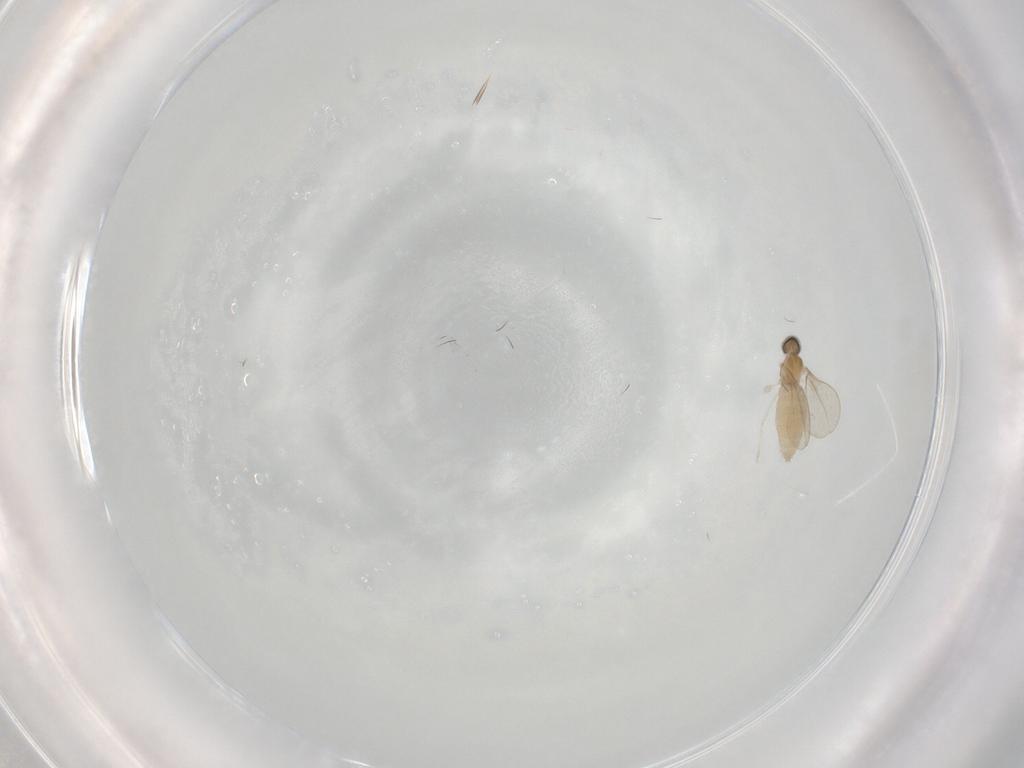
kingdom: Animalia
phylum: Arthropoda
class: Insecta
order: Diptera
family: Cecidomyiidae
